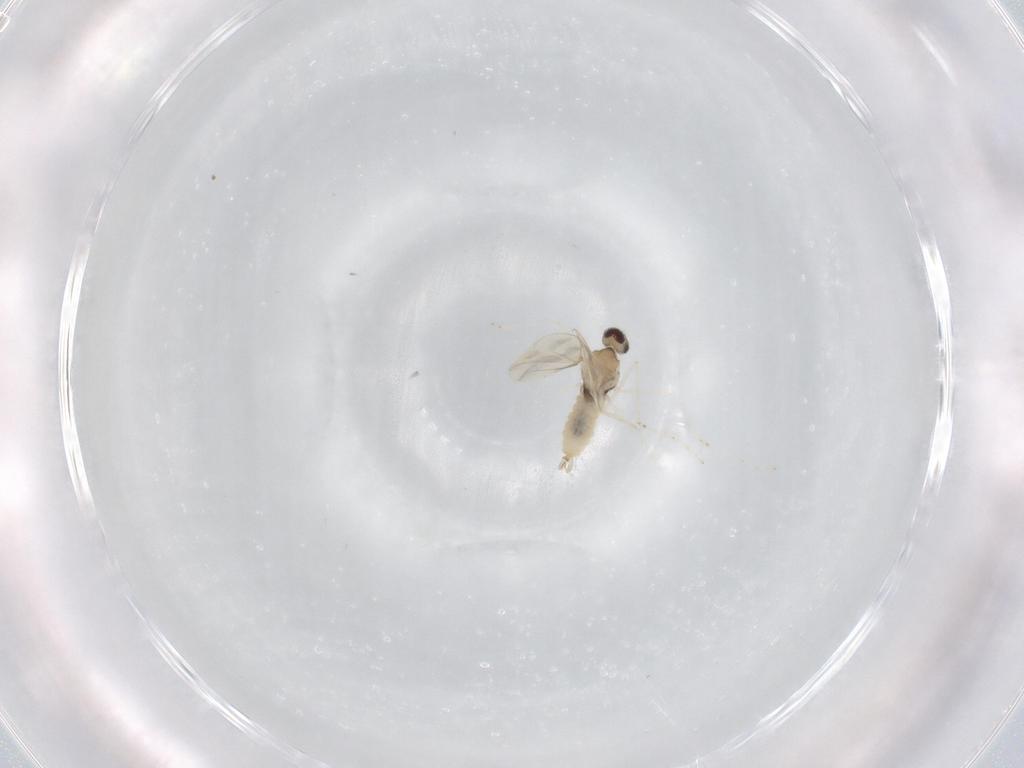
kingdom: Animalia
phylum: Arthropoda
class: Insecta
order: Diptera
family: Cecidomyiidae
